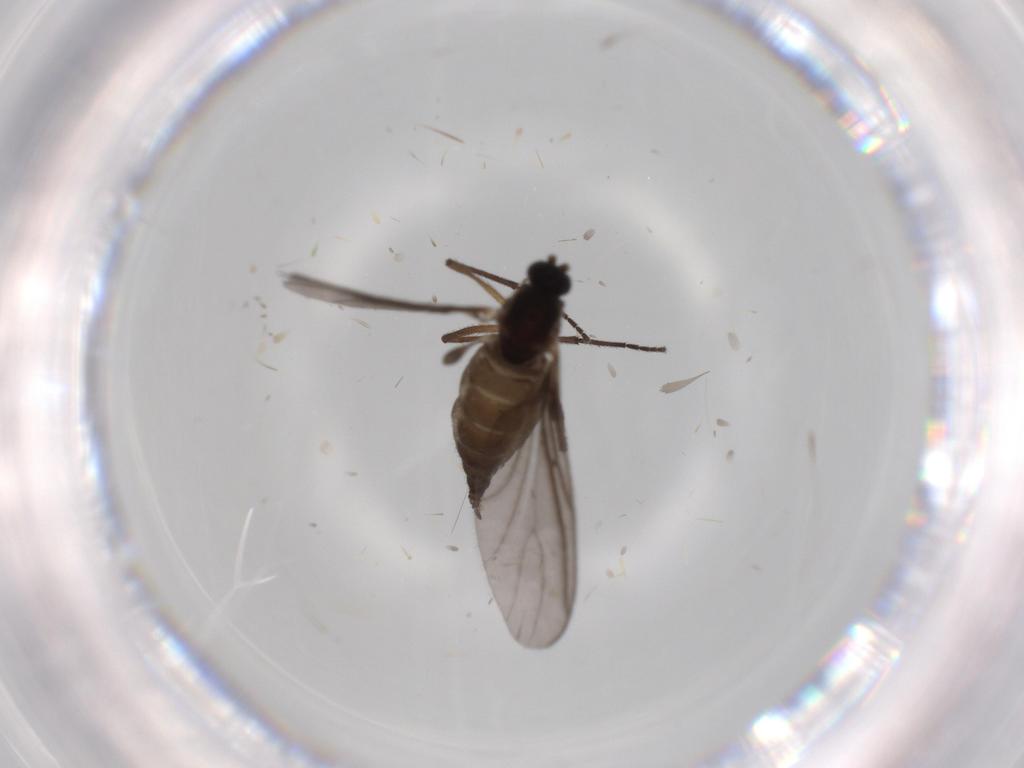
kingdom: Animalia
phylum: Arthropoda
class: Insecta
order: Diptera
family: Sciaridae
